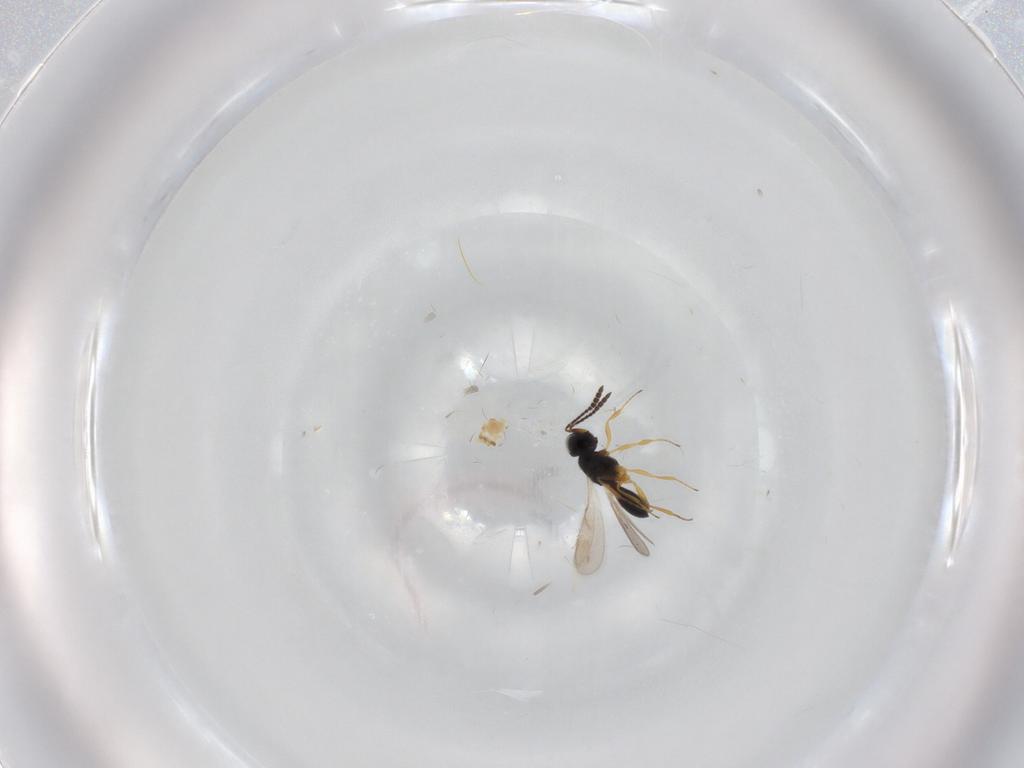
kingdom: Animalia
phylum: Arthropoda
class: Insecta
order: Hymenoptera
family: Scelionidae
